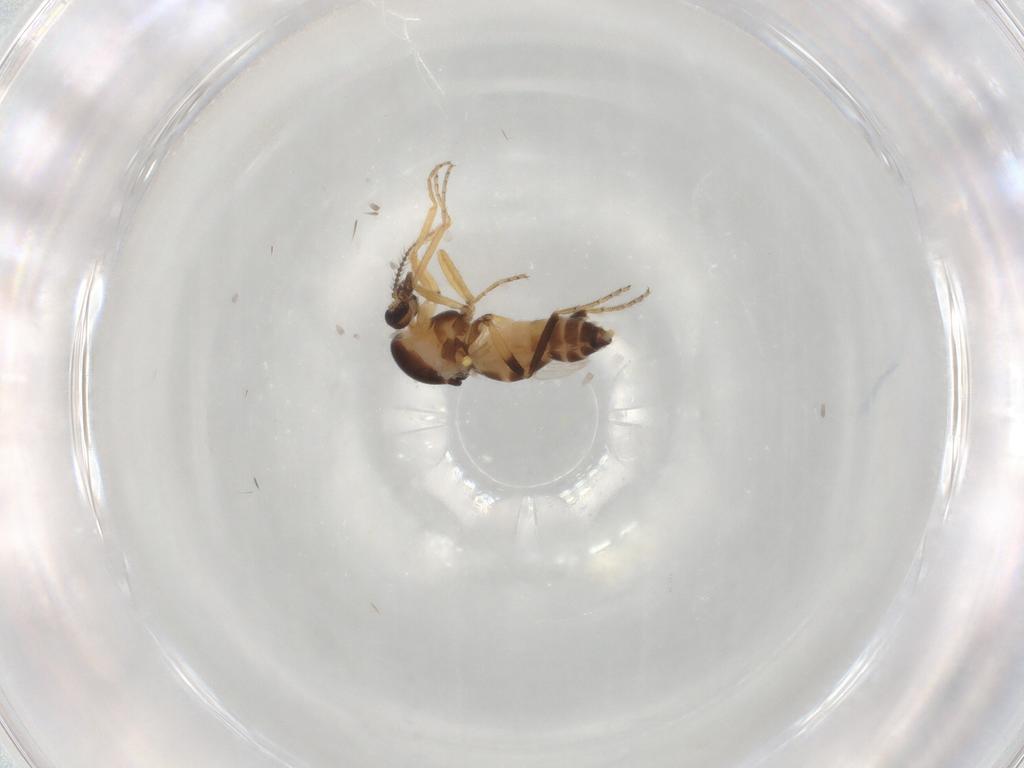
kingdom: Animalia
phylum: Arthropoda
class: Insecta
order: Diptera
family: Ceratopogonidae
